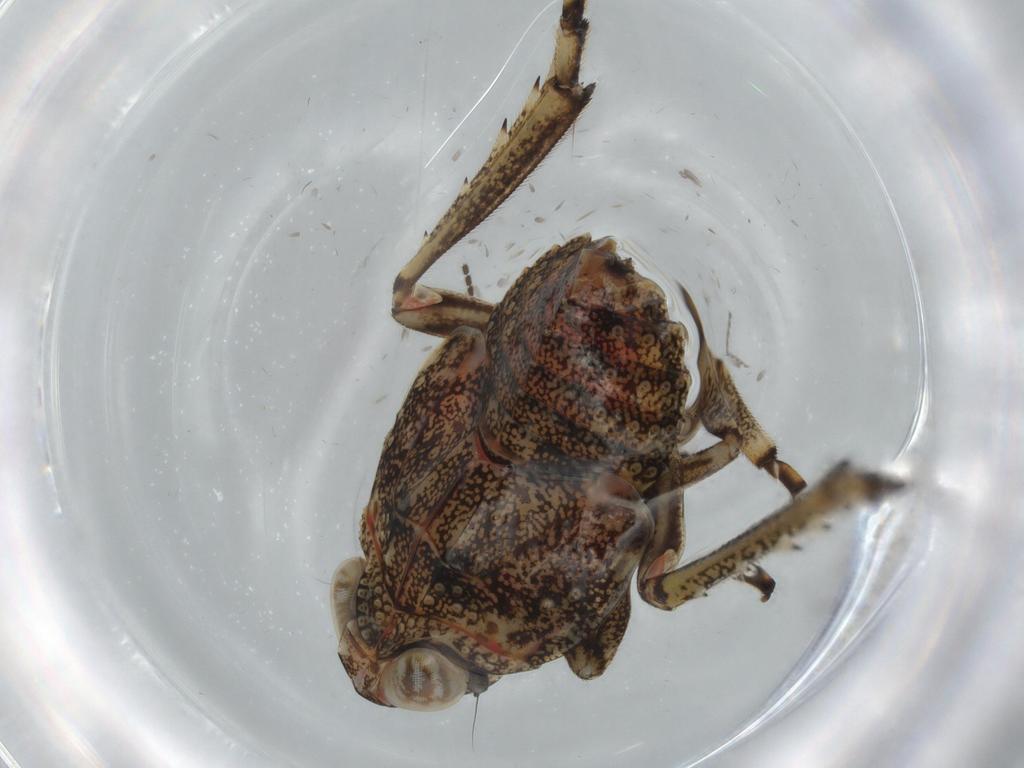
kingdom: Animalia
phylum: Arthropoda
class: Insecta
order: Hemiptera
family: Issidae
